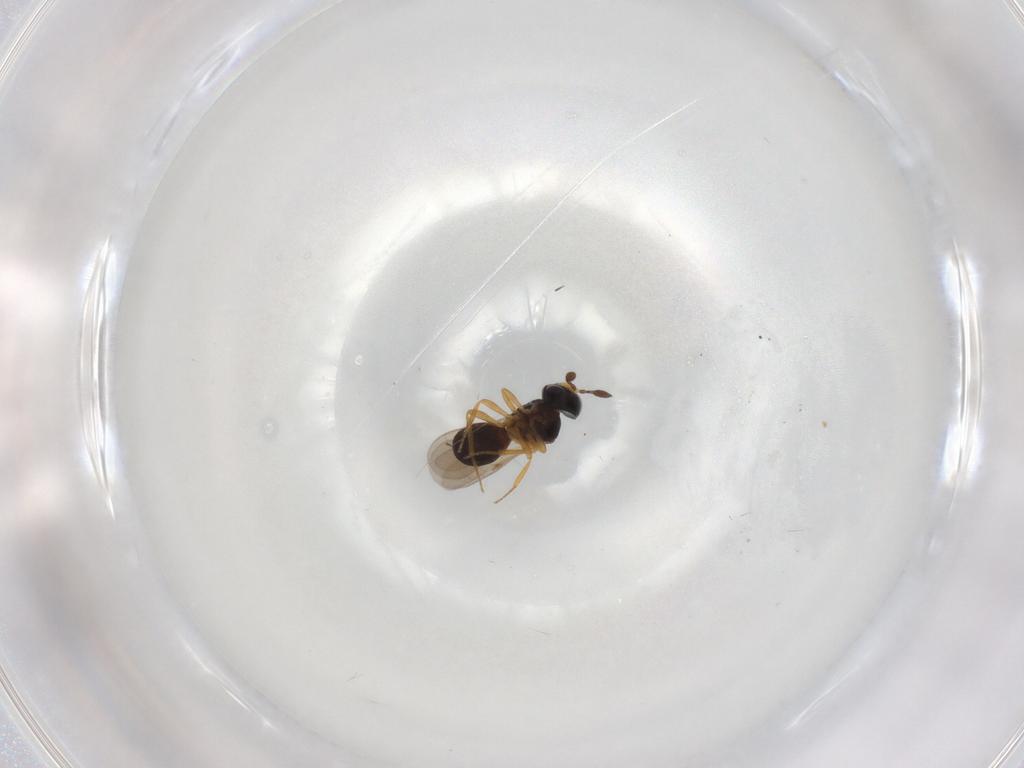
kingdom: Animalia
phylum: Arthropoda
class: Insecta
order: Hymenoptera
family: Scelionidae
